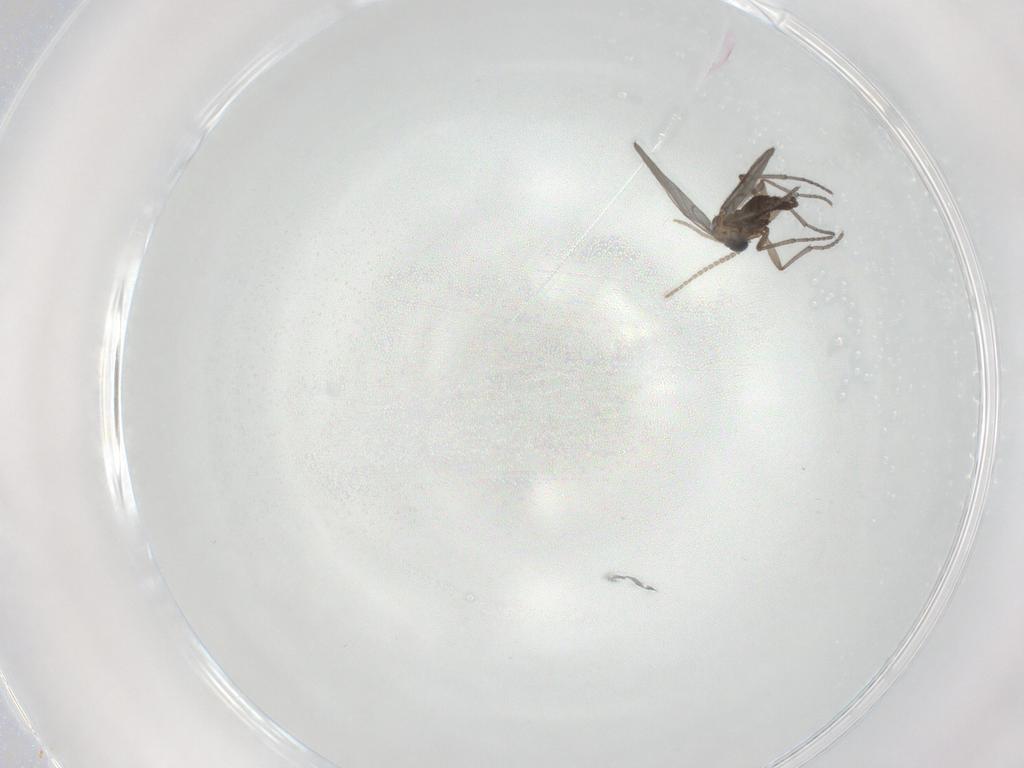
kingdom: Animalia
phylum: Arthropoda
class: Insecta
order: Diptera
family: Sciaridae
